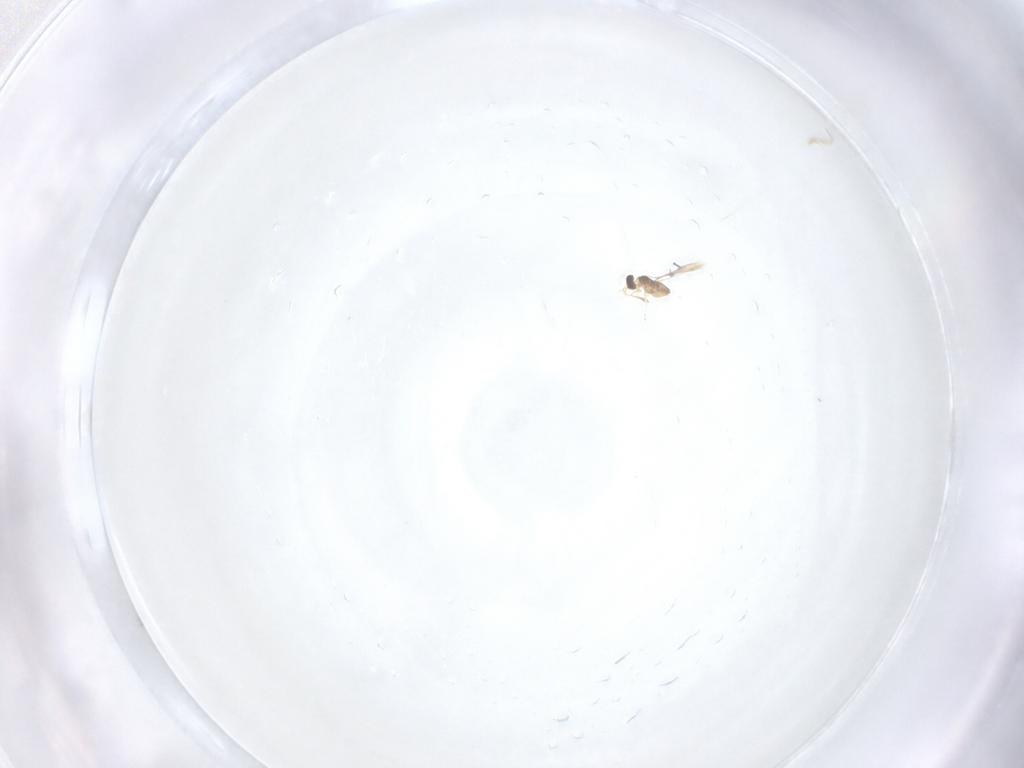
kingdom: Animalia
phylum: Arthropoda
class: Insecta
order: Hymenoptera
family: Mymaridae
